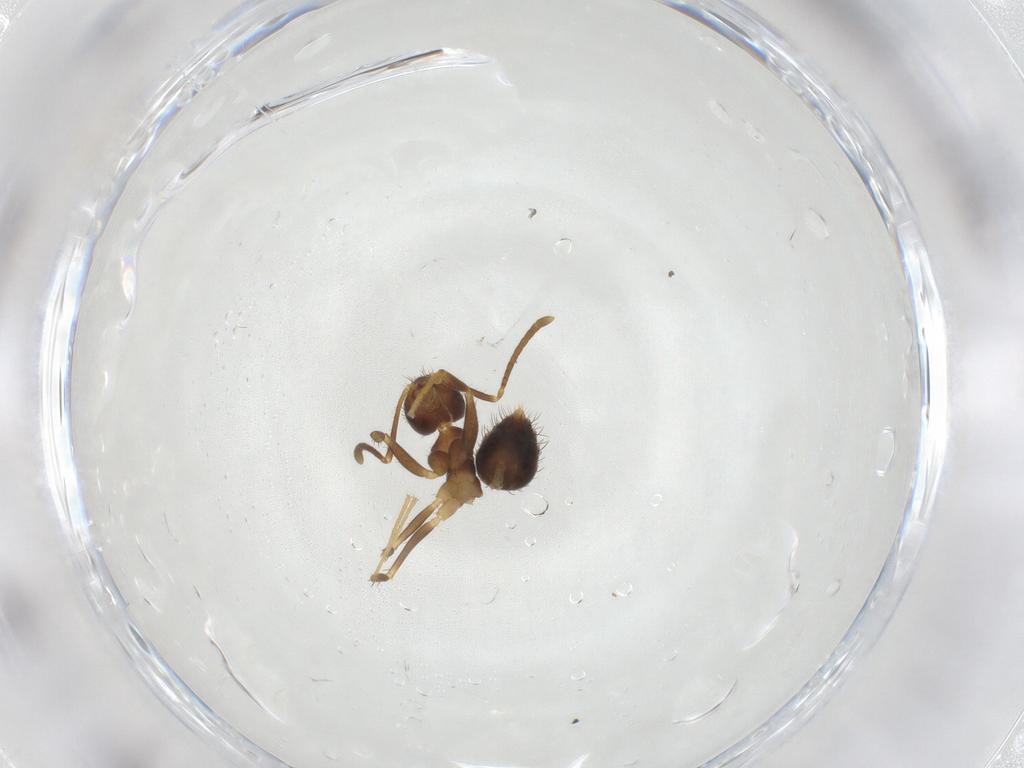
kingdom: Animalia
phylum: Arthropoda
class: Insecta
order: Hymenoptera
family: Formicidae
